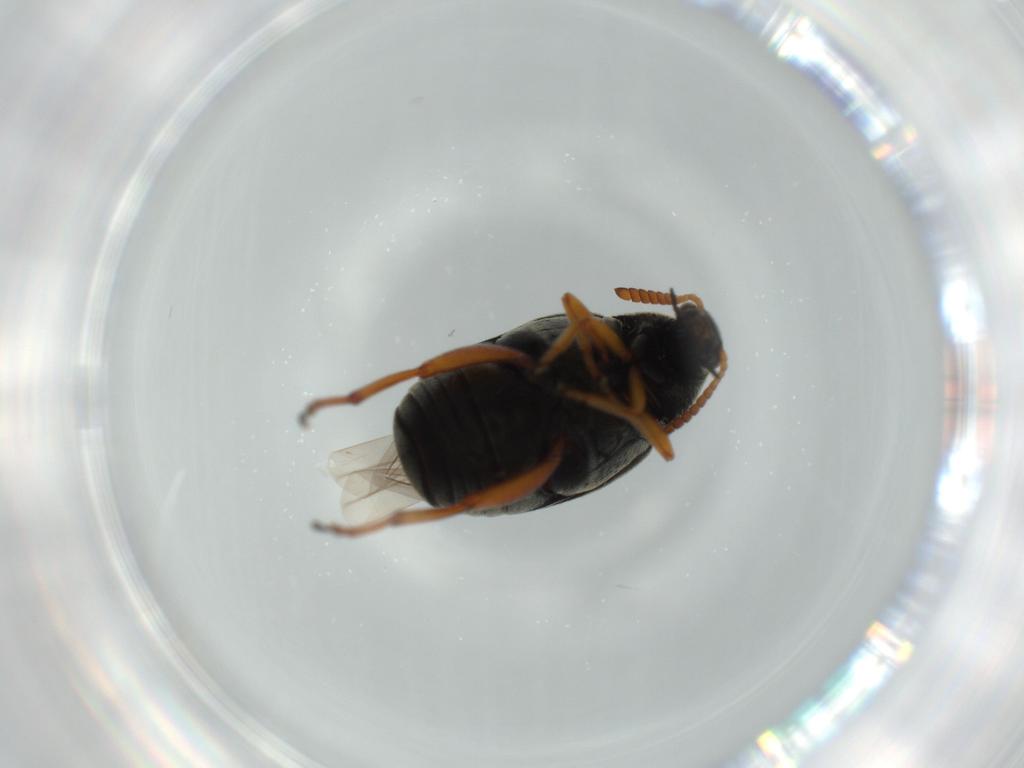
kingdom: Animalia
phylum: Arthropoda
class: Insecta
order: Coleoptera
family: Chrysomelidae
